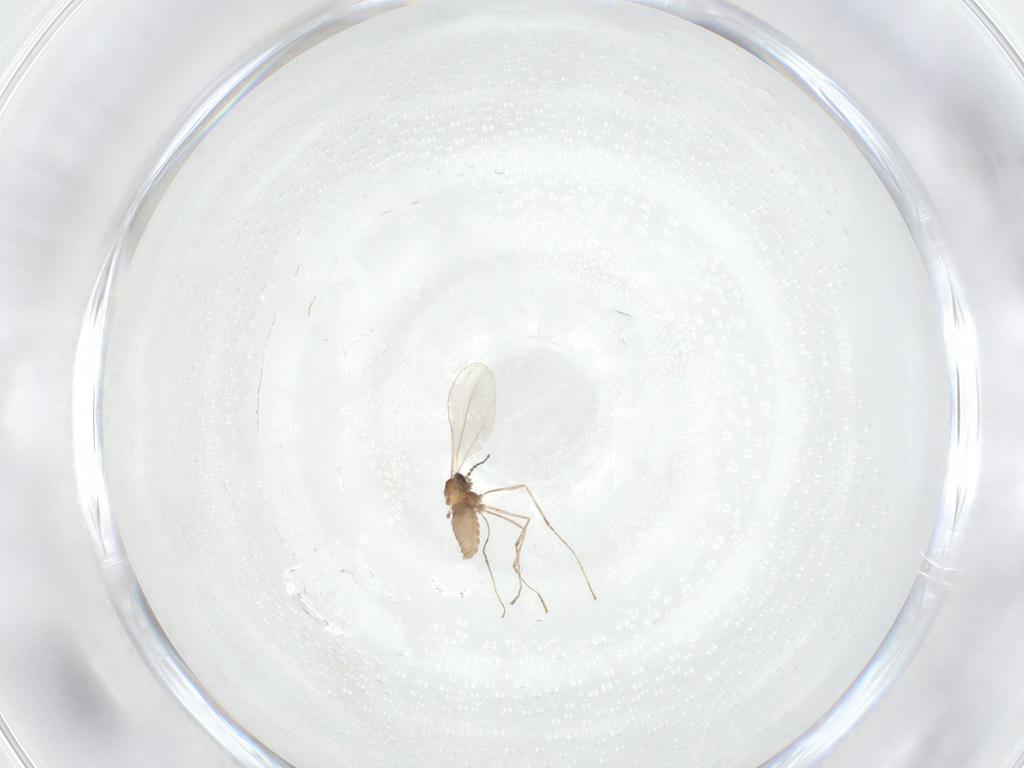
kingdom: Animalia
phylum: Arthropoda
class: Insecta
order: Diptera
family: Cecidomyiidae
